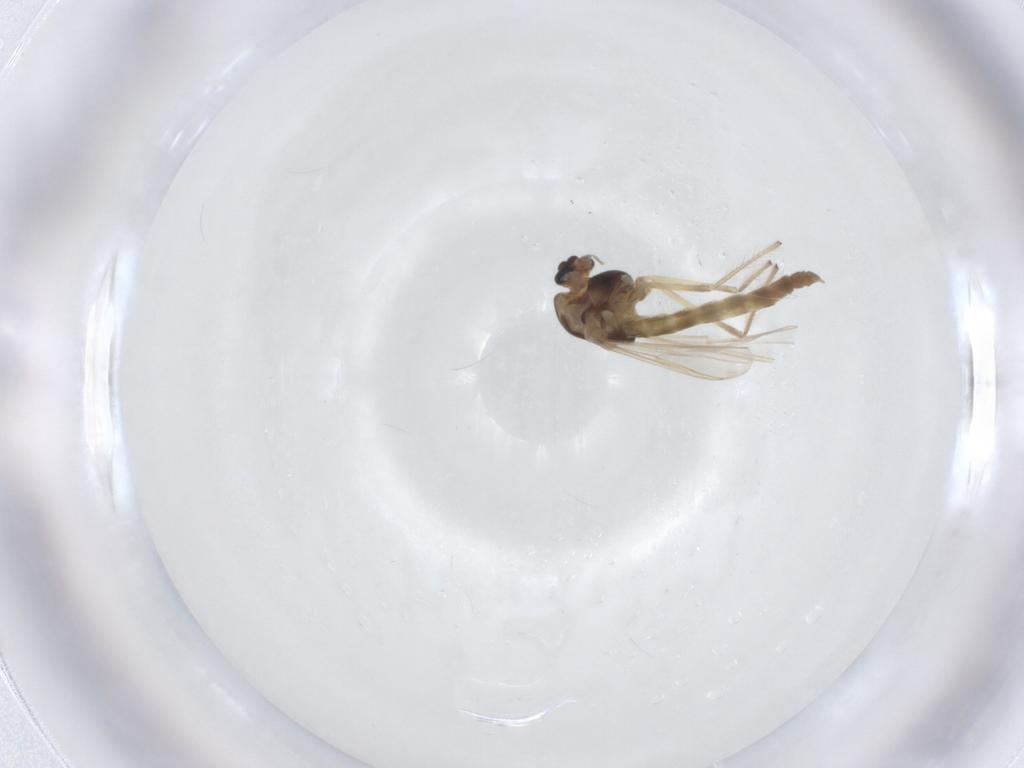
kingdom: Animalia
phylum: Arthropoda
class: Insecta
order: Diptera
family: Chironomidae
